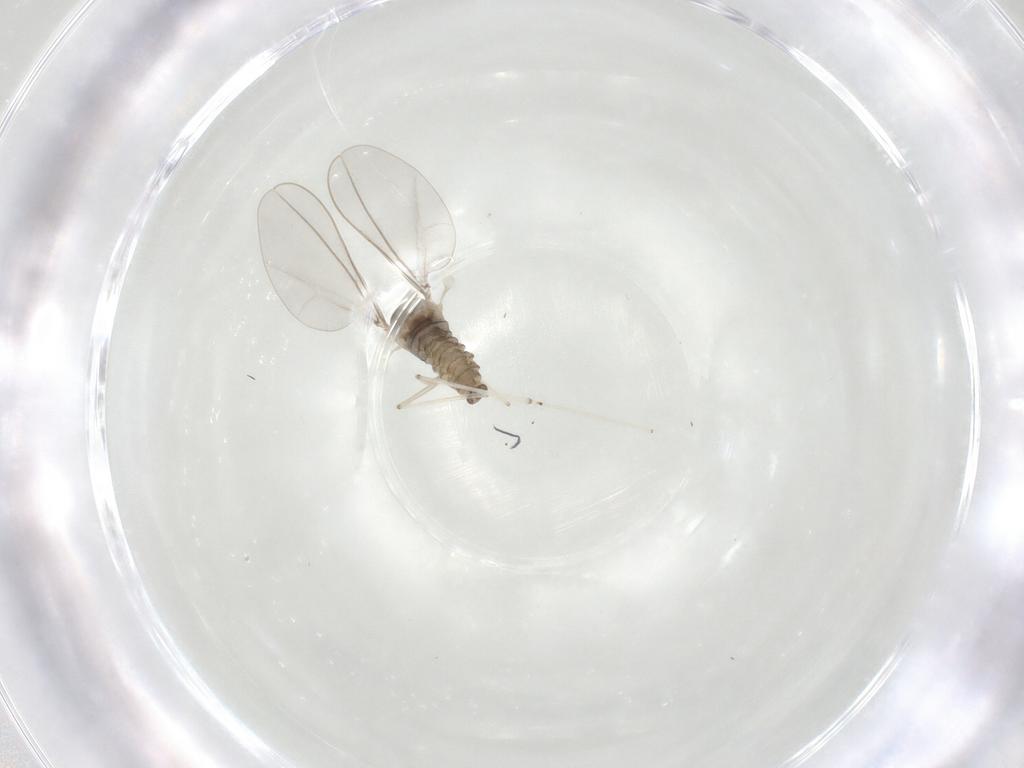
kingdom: Animalia
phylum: Arthropoda
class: Insecta
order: Diptera
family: Cecidomyiidae
